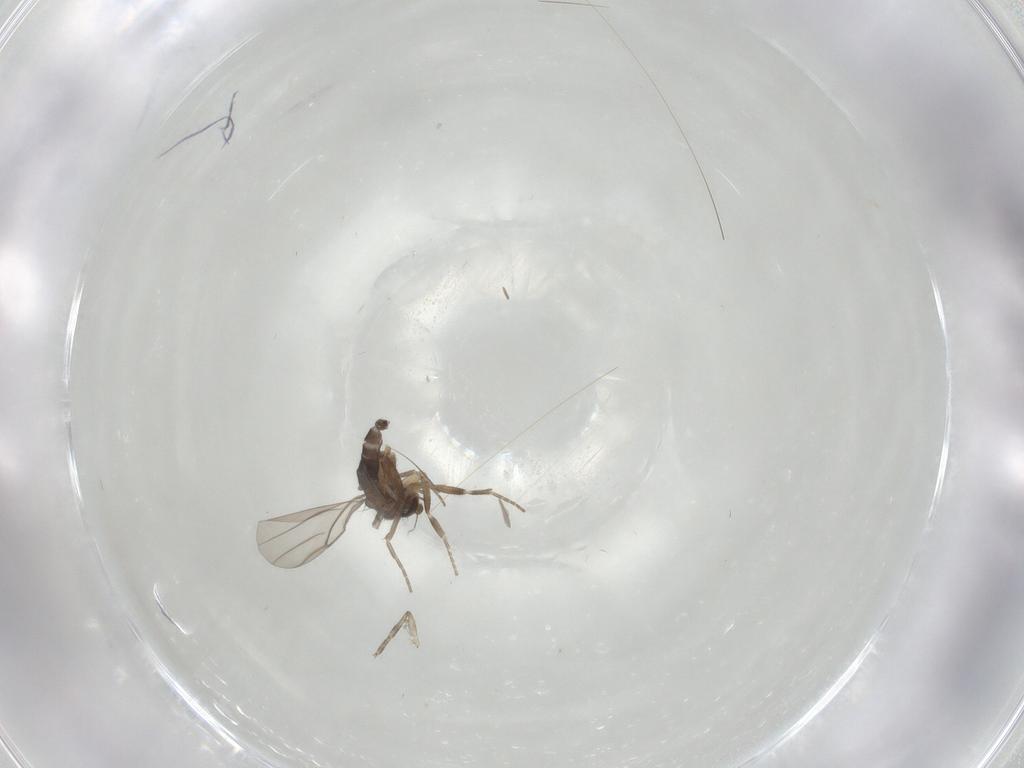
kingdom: Animalia
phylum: Arthropoda
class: Insecta
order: Diptera
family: Phoridae
